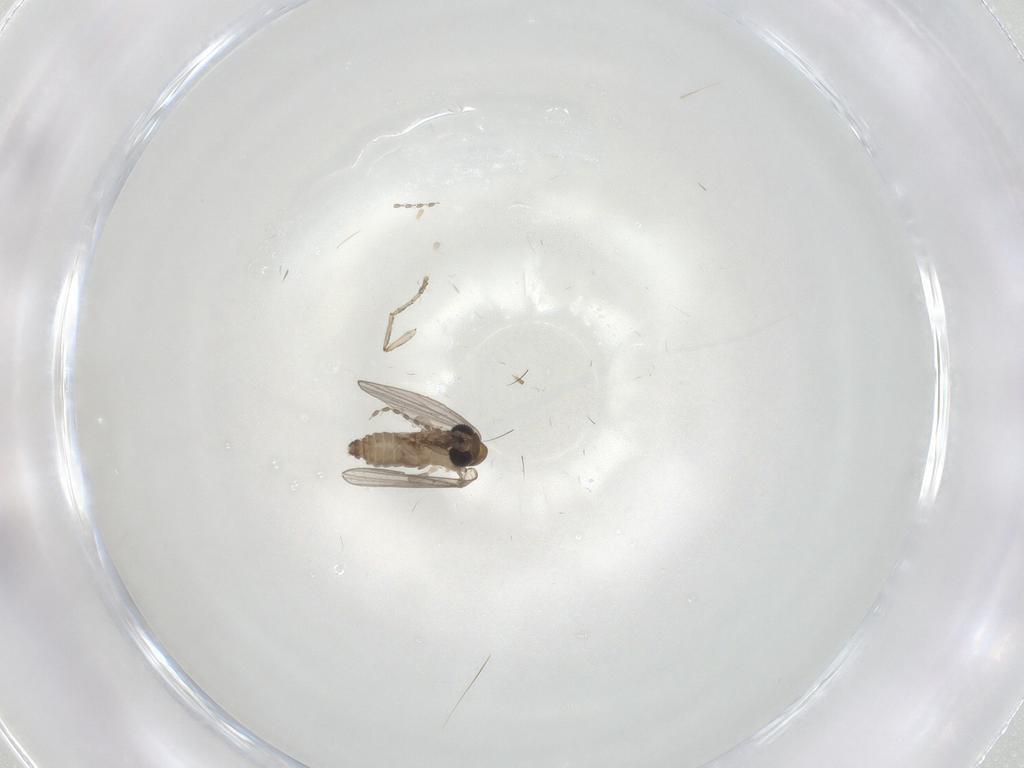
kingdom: Animalia
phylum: Arthropoda
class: Insecta
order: Diptera
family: Psychodidae
